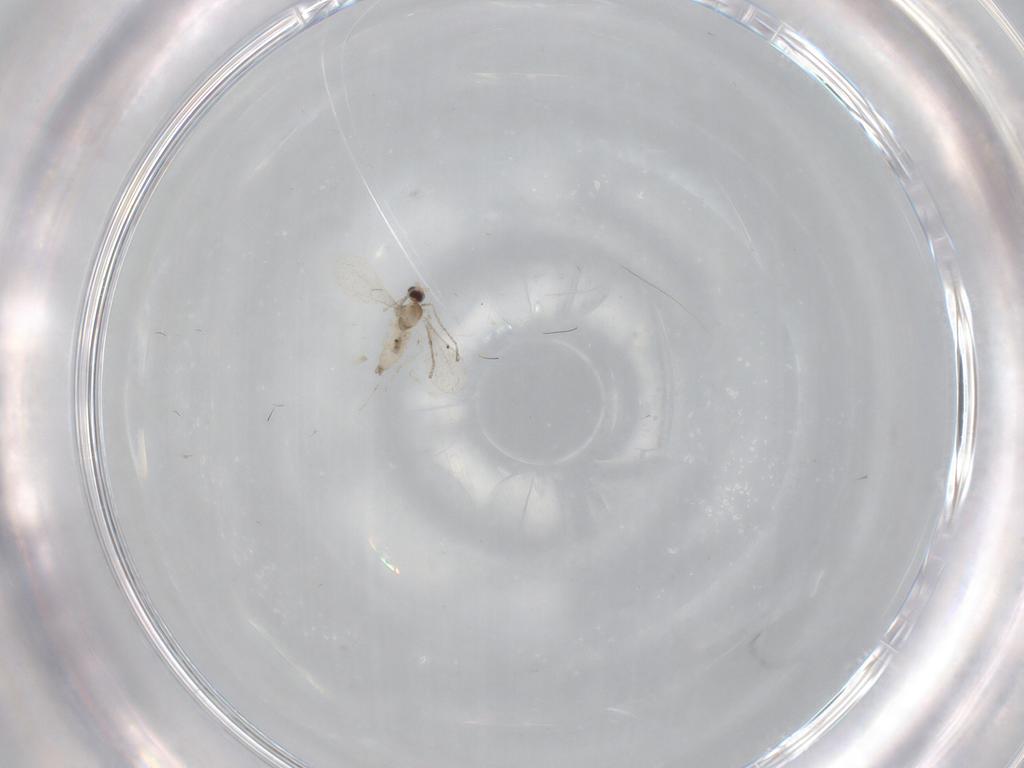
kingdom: Animalia
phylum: Arthropoda
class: Insecta
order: Diptera
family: Cecidomyiidae
